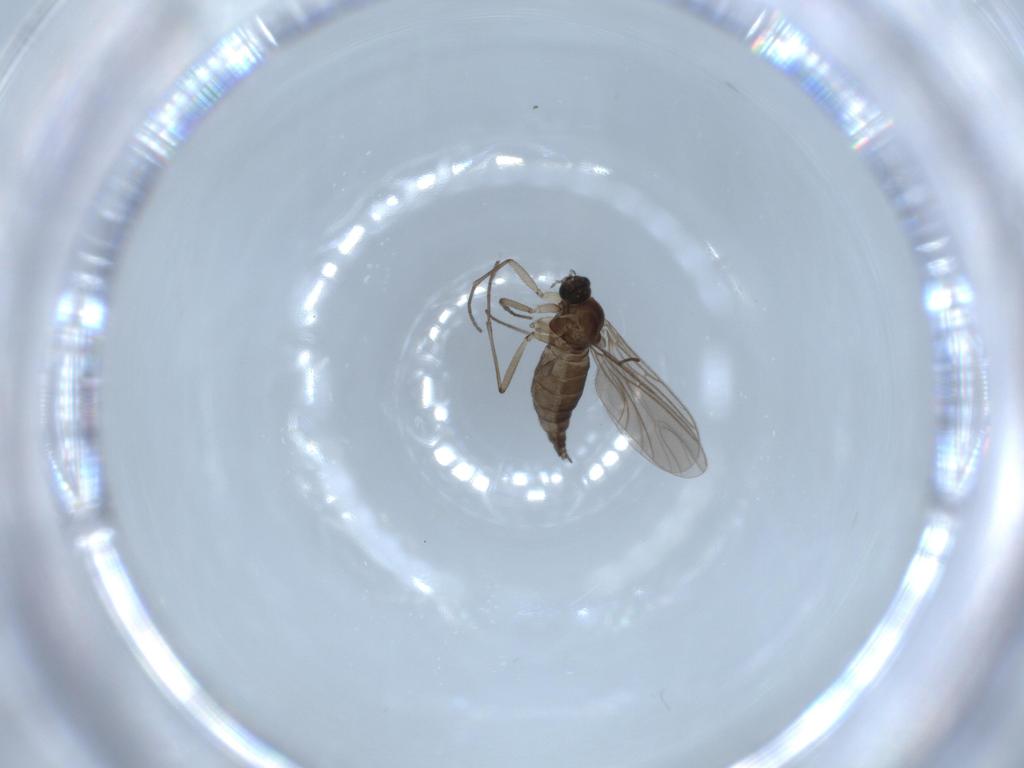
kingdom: Animalia
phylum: Arthropoda
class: Insecta
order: Diptera
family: Sciaridae
